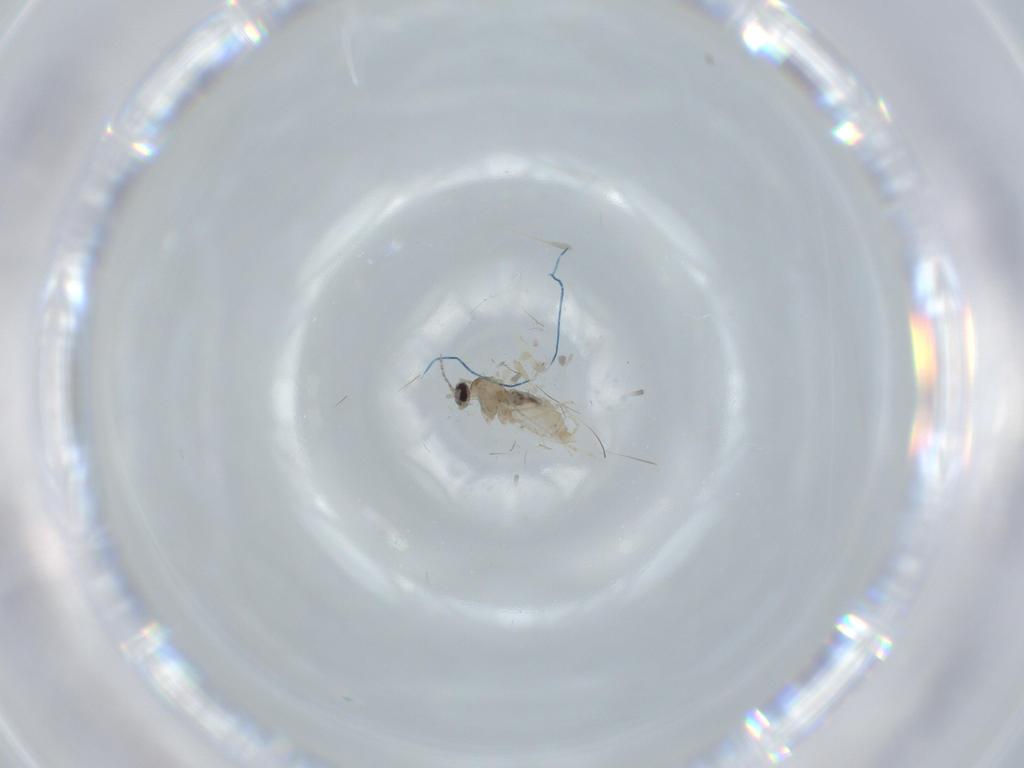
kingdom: Animalia
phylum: Arthropoda
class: Insecta
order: Diptera
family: Cecidomyiidae
